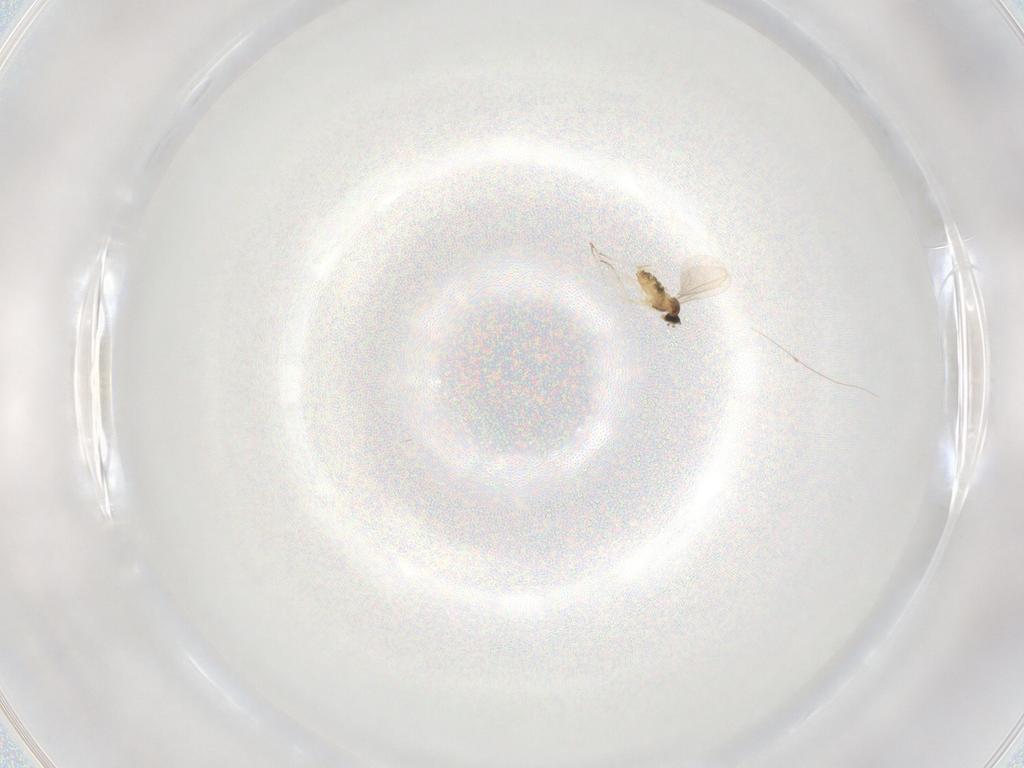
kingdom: Animalia
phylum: Arthropoda
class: Insecta
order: Diptera
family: Cecidomyiidae
